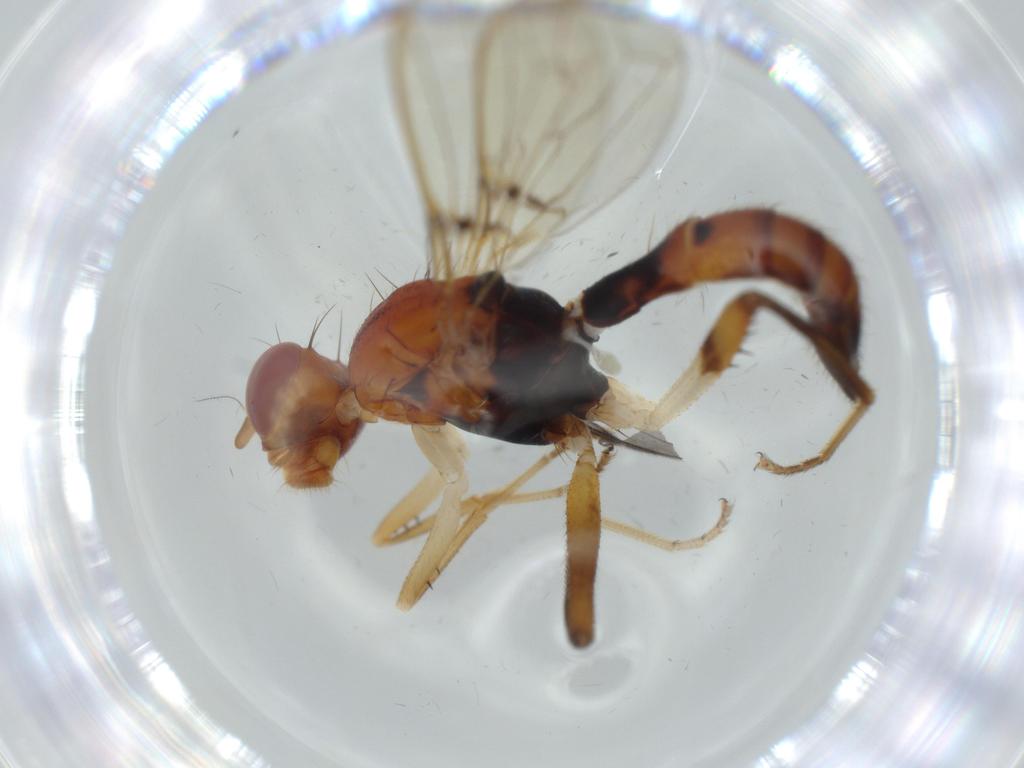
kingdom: Animalia
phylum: Arthropoda
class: Insecta
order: Diptera
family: Richardiidae
